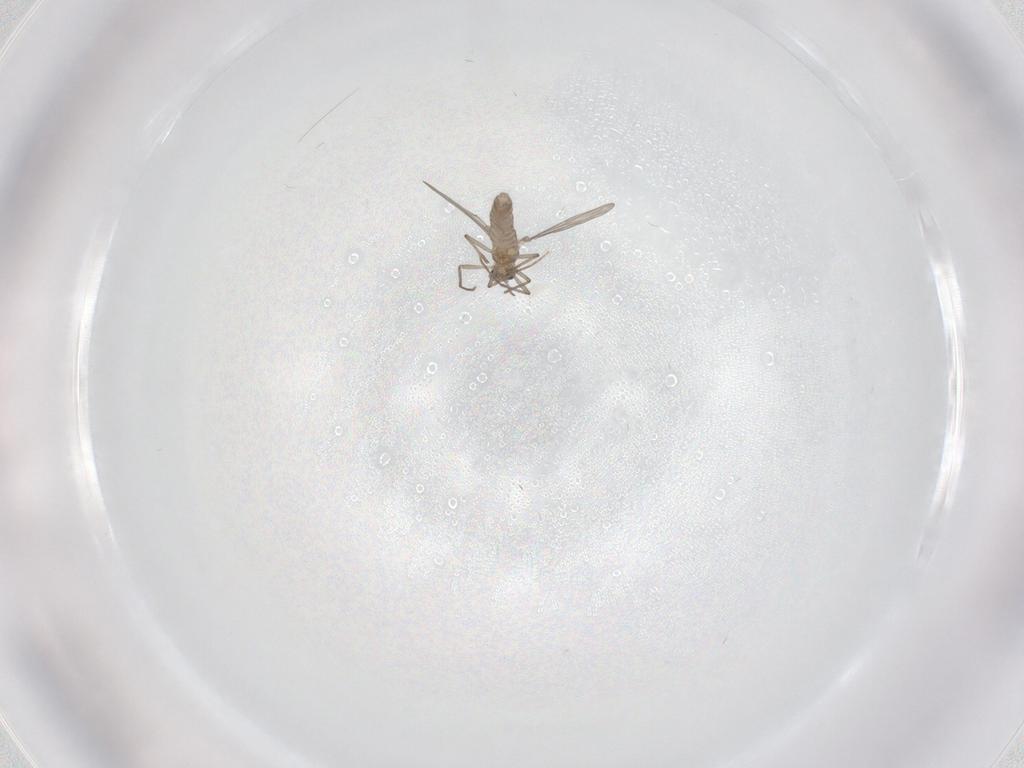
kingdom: Animalia
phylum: Arthropoda
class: Insecta
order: Diptera
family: Chironomidae
